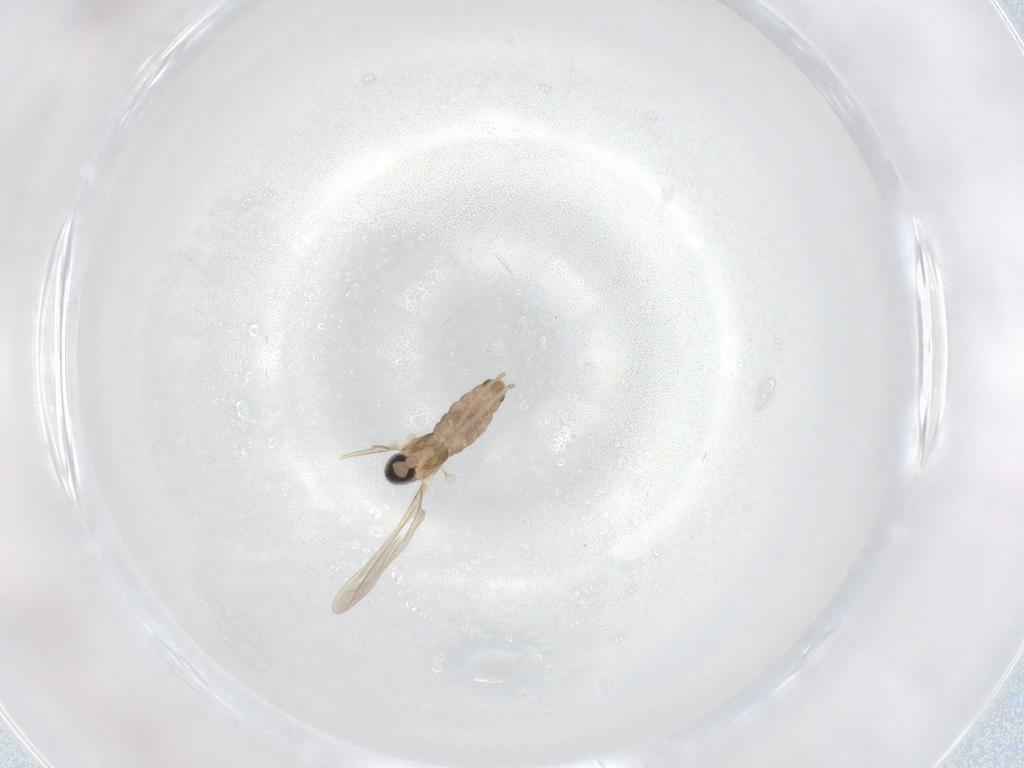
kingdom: Animalia
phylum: Arthropoda
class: Insecta
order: Diptera
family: Cecidomyiidae
